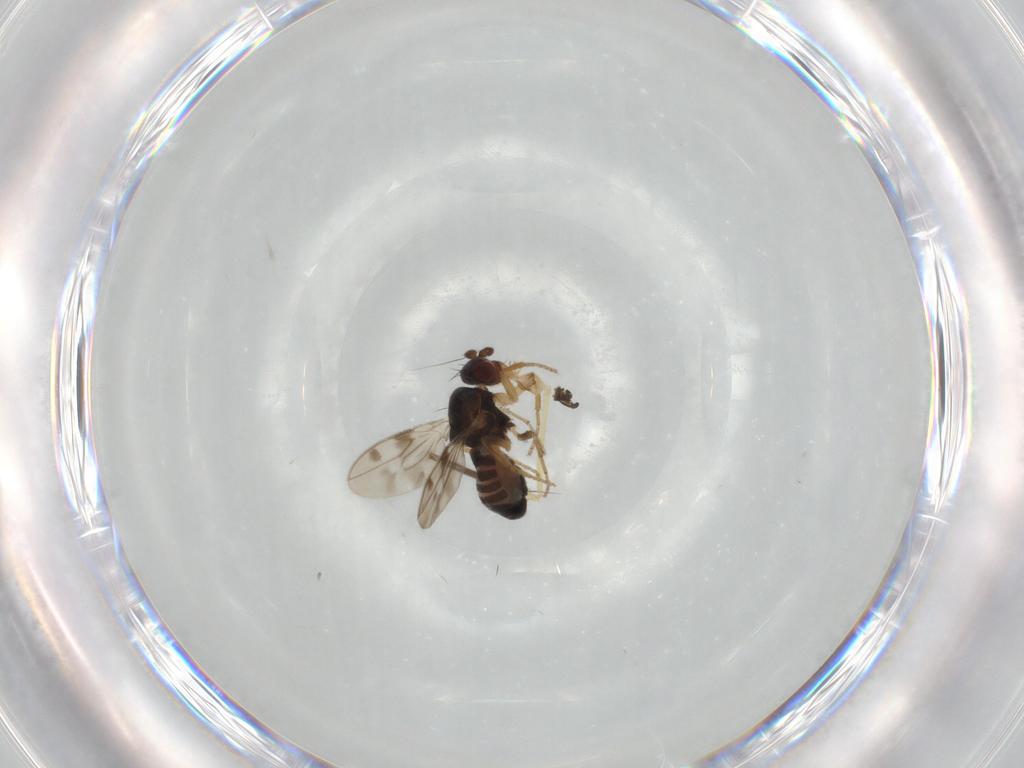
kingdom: Animalia
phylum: Arthropoda
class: Insecta
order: Diptera
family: Sphaeroceridae
